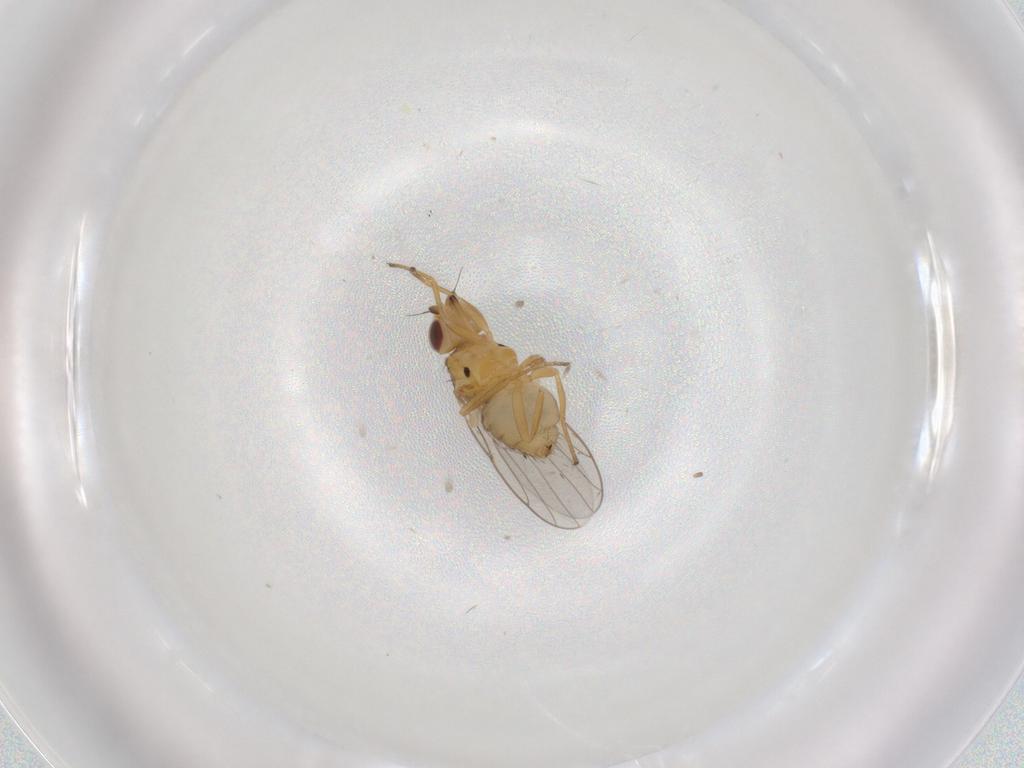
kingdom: Animalia
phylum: Arthropoda
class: Insecta
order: Diptera
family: Chloropidae
